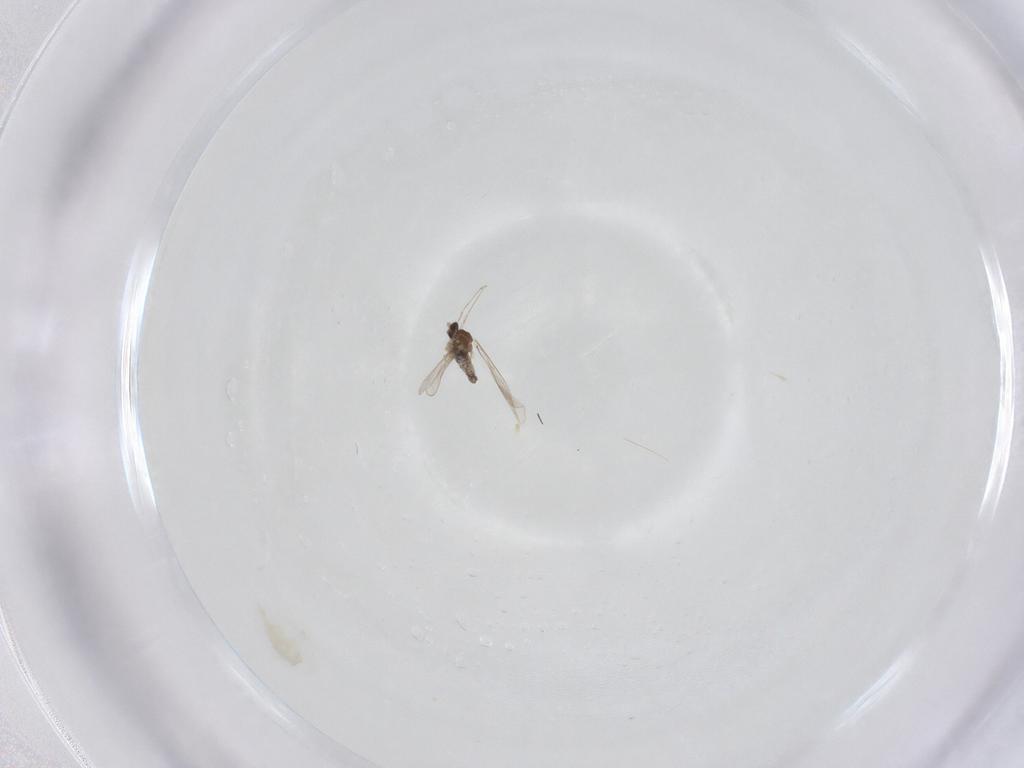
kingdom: Animalia
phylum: Arthropoda
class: Insecta
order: Diptera
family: Cecidomyiidae
